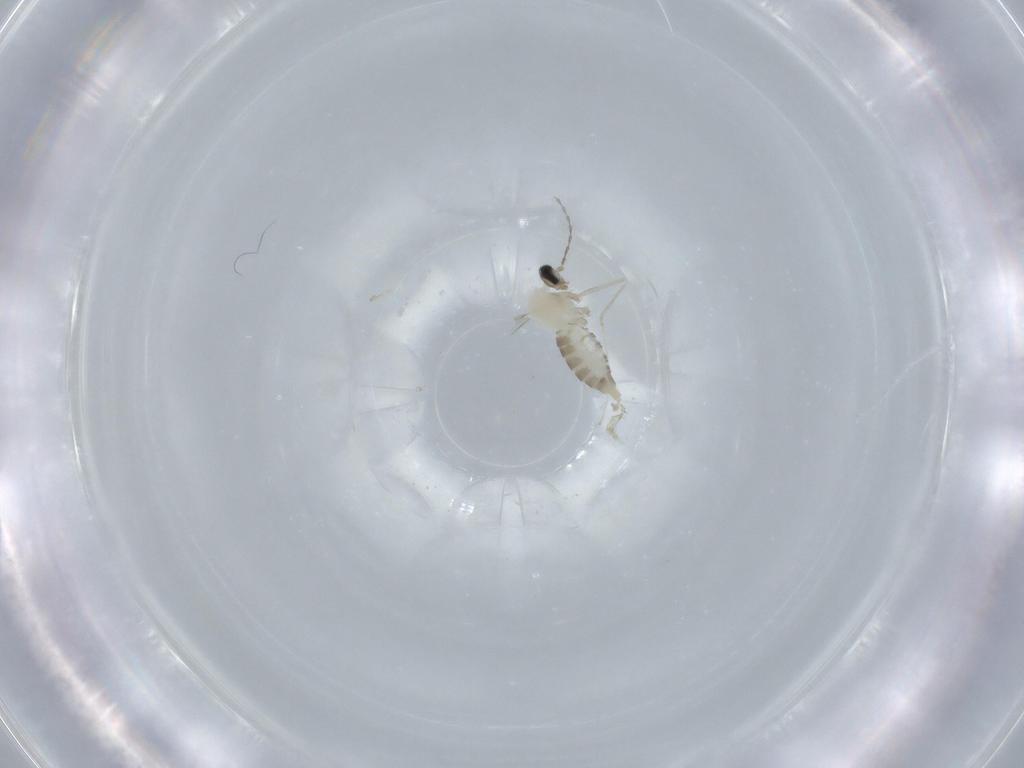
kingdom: Animalia
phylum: Arthropoda
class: Insecta
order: Diptera
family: Cecidomyiidae
